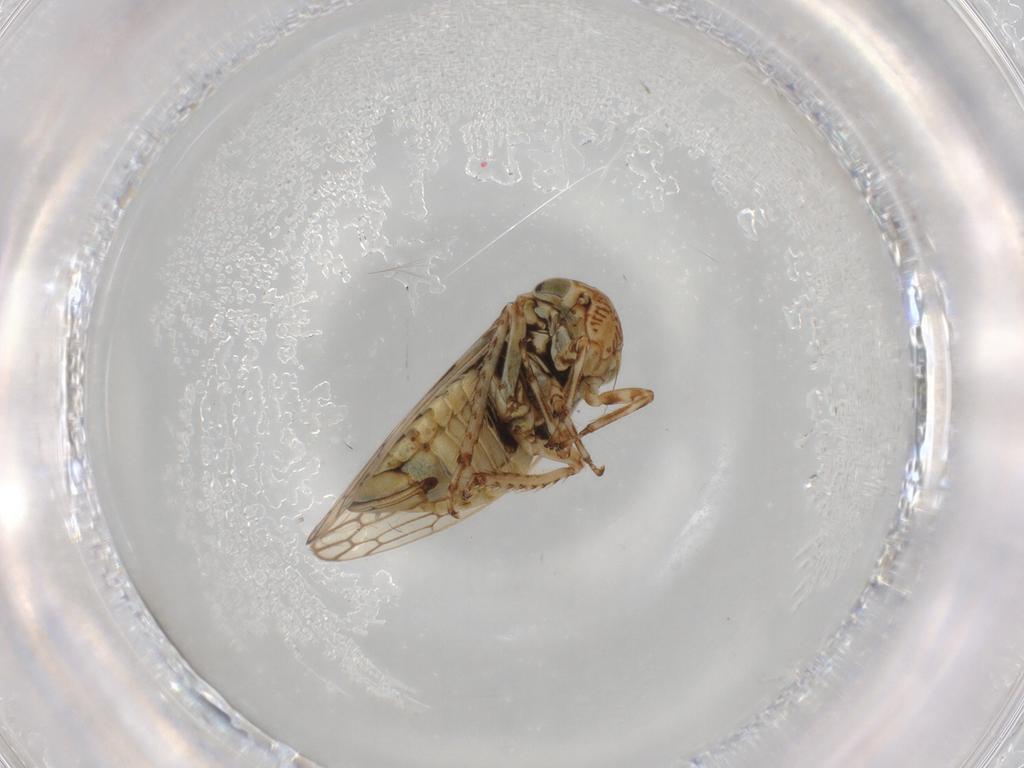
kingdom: Animalia
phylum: Arthropoda
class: Insecta
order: Hemiptera
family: Cicadellidae
